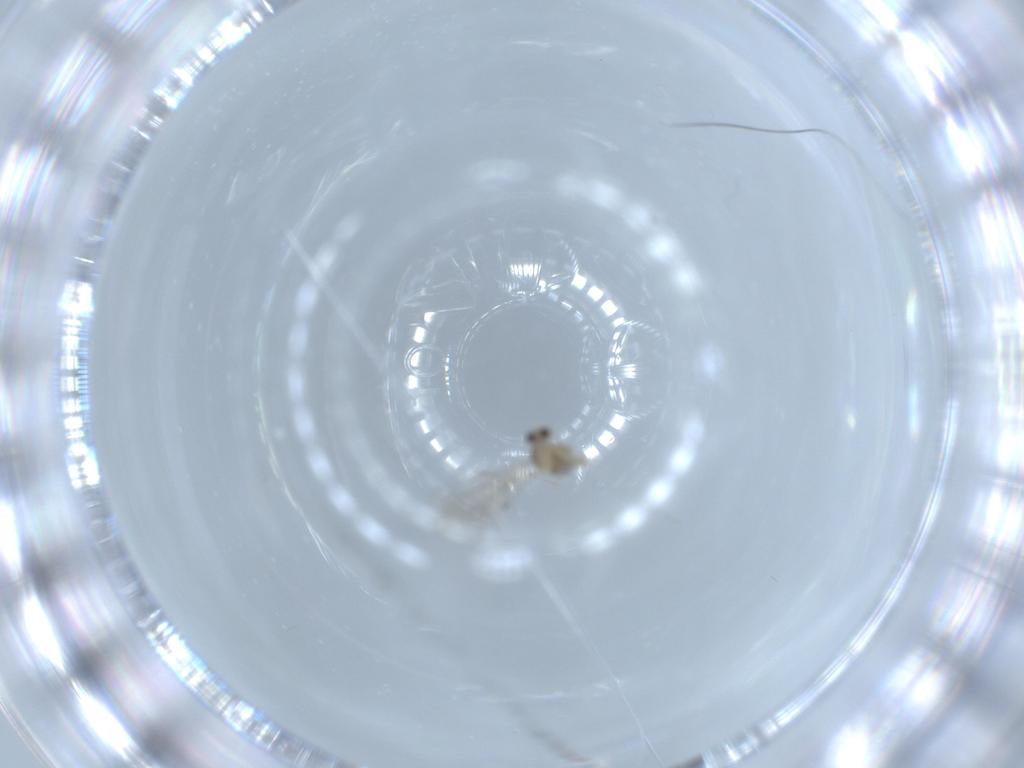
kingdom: Animalia
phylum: Arthropoda
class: Insecta
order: Diptera
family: Cecidomyiidae
